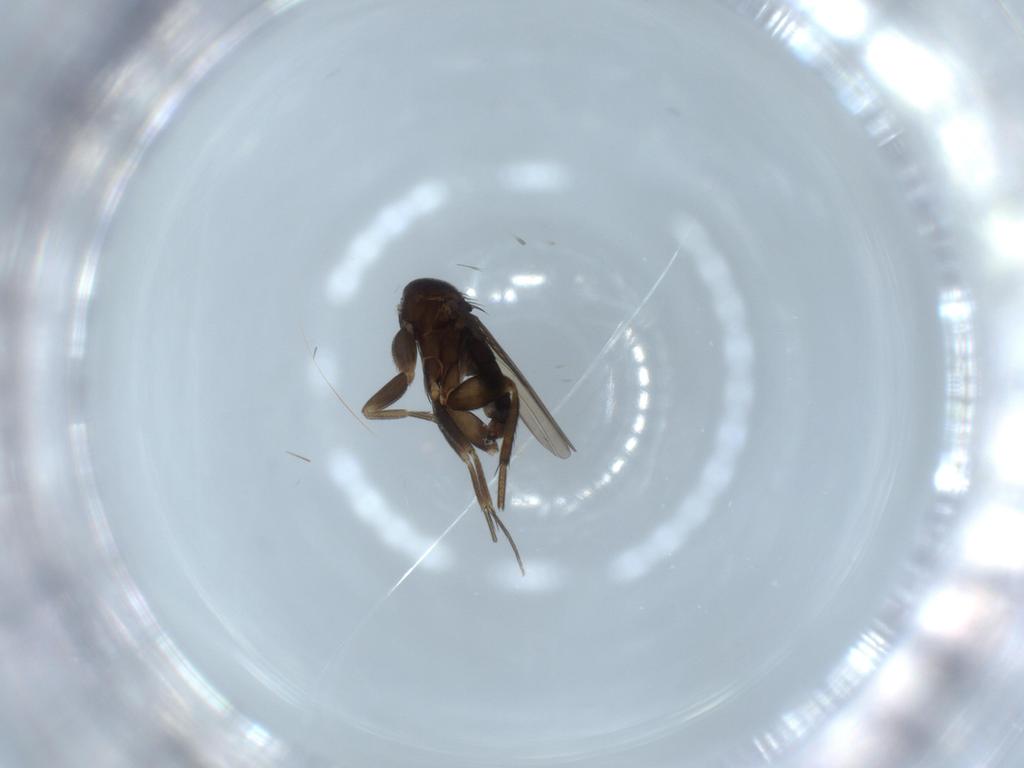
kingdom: Animalia
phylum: Arthropoda
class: Insecta
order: Diptera
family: Phoridae
